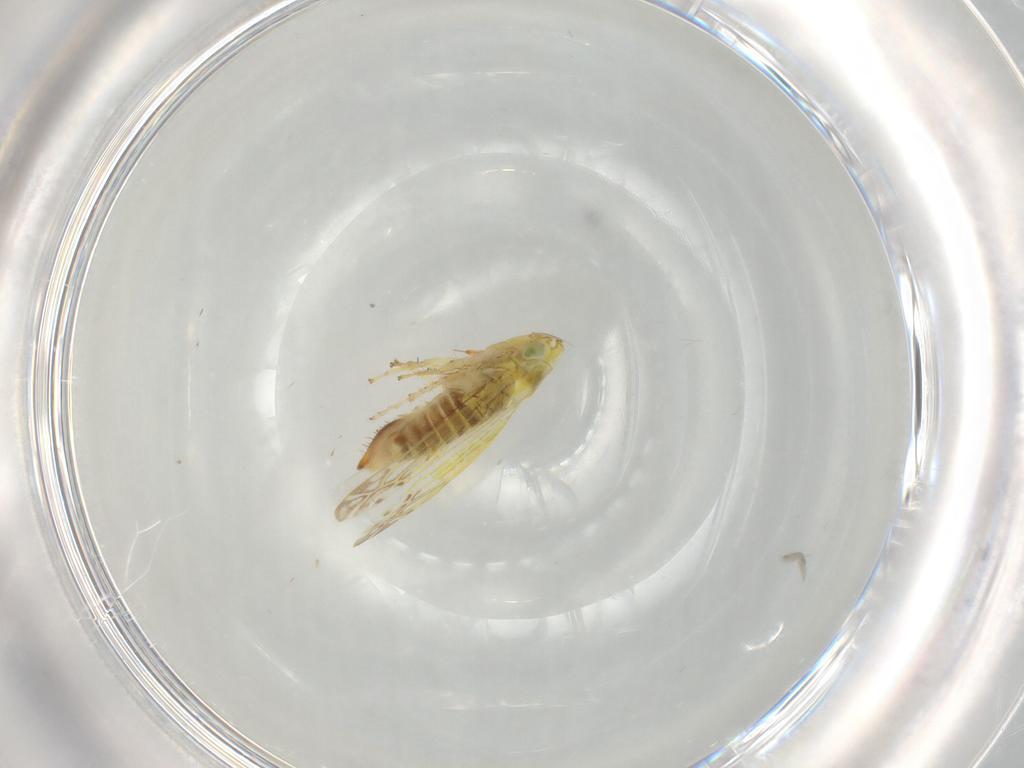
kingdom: Animalia
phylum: Arthropoda
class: Insecta
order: Hemiptera
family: Cicadellidae
